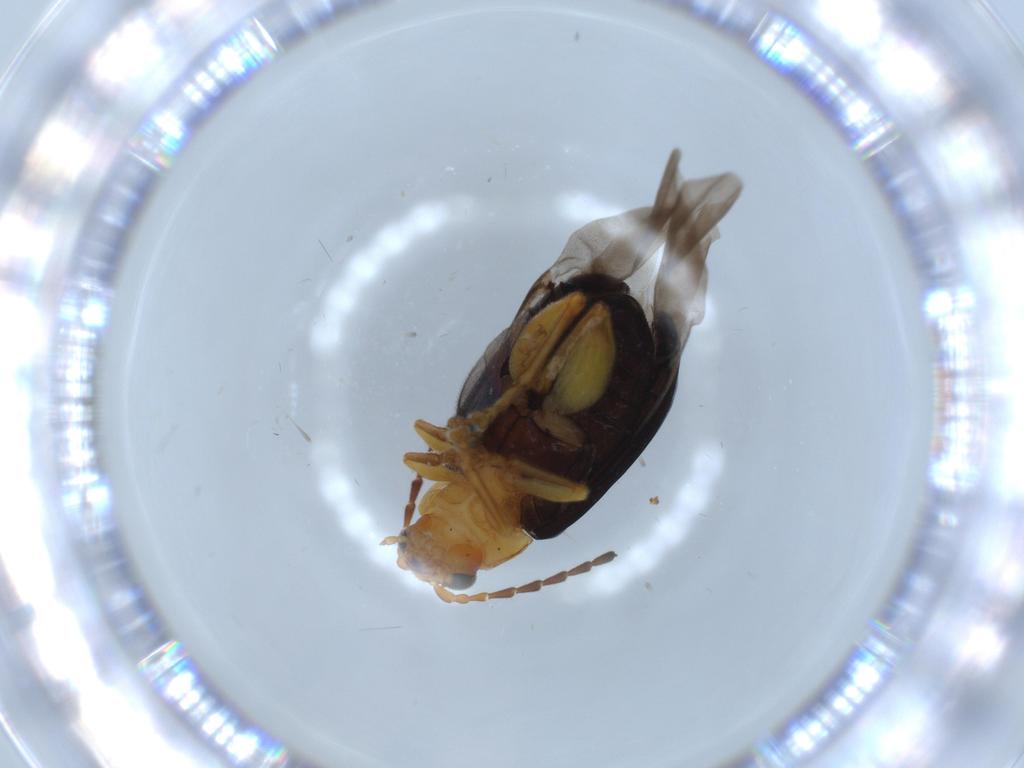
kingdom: Animalia
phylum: Arthropoda
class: Insecta
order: Coleoptera
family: Chrysomelidae
